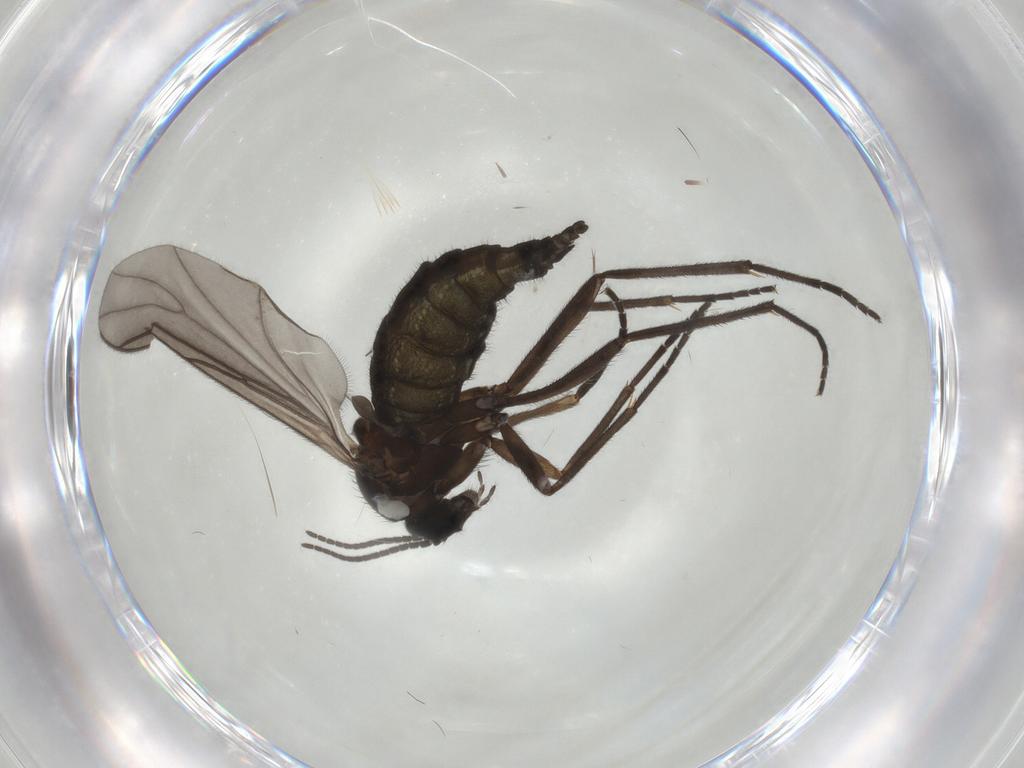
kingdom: Animalia
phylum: Arthropoda
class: Insecta
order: Diptera
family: Sciaridae
